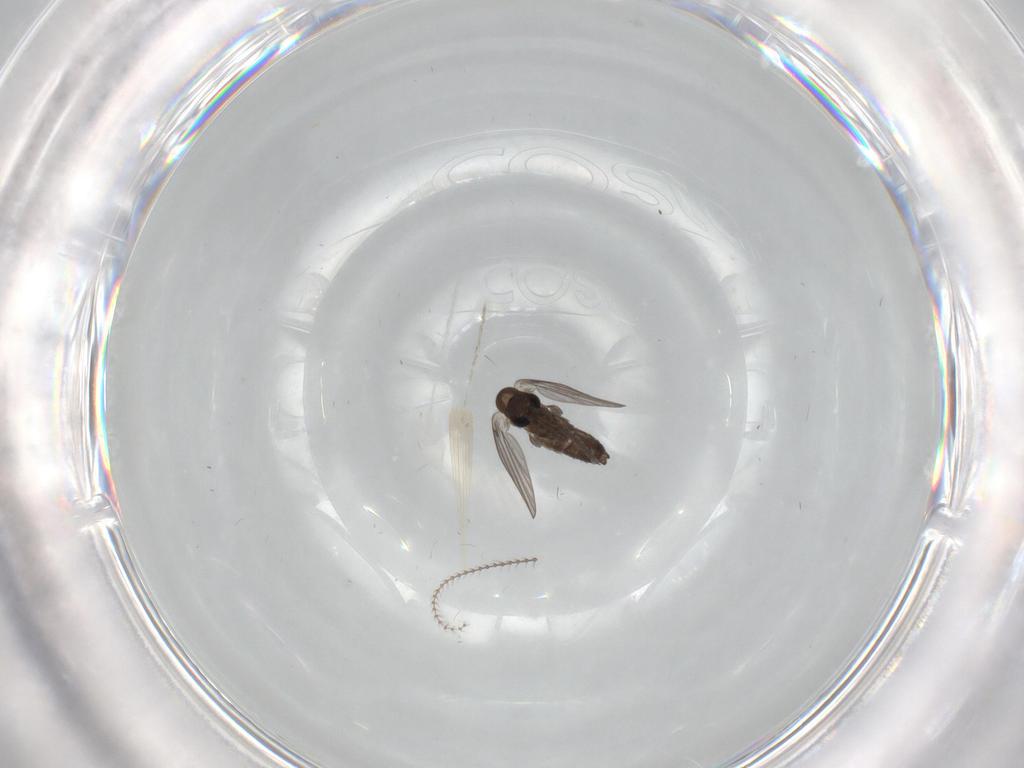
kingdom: Animalia
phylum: Arthropoda
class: Insecta
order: Diptera
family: Cecidomyiidae
